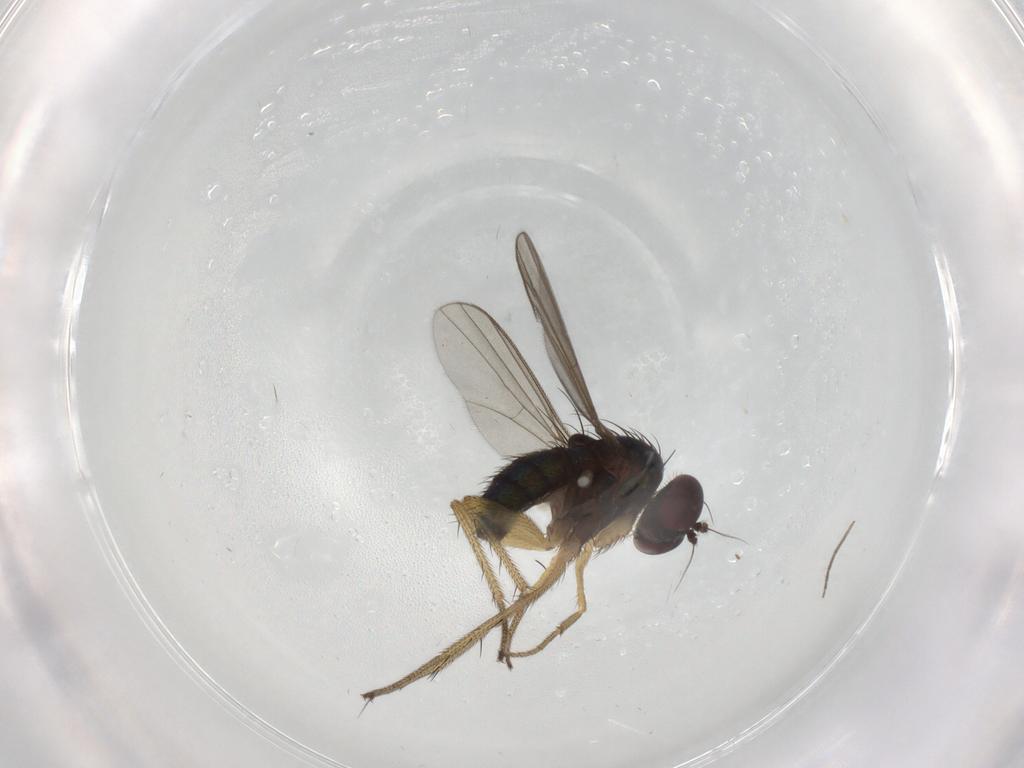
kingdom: Animalia
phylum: Arthropoda
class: Insecta
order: Diptera
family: Dolichopodidae
